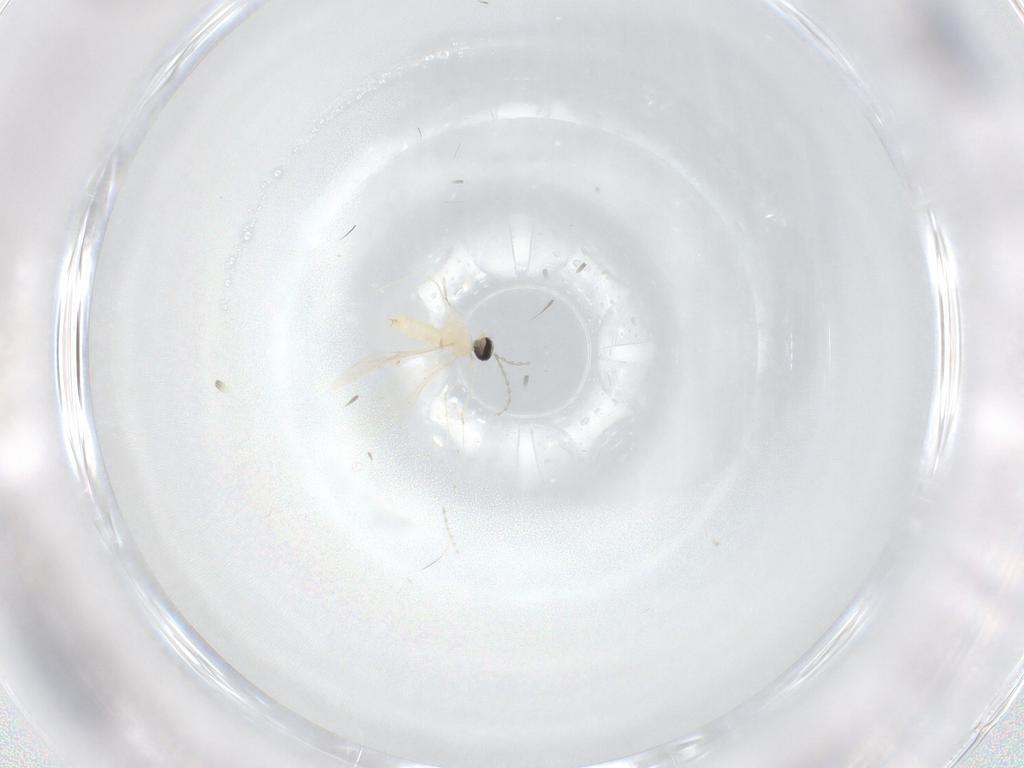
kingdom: Animalia
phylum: Arthropoda
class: Insecta
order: Diptera
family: Cecidomyiidae
